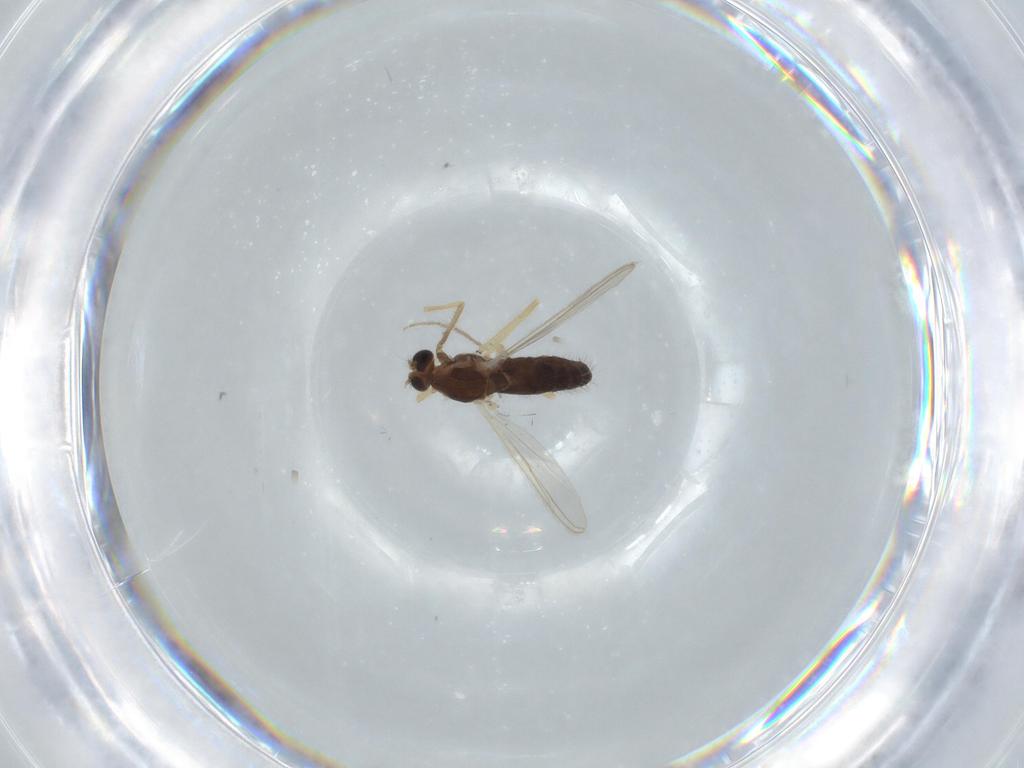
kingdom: Animalia
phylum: Arthropoda
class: Insecta
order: Diptera
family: Chironomidae
